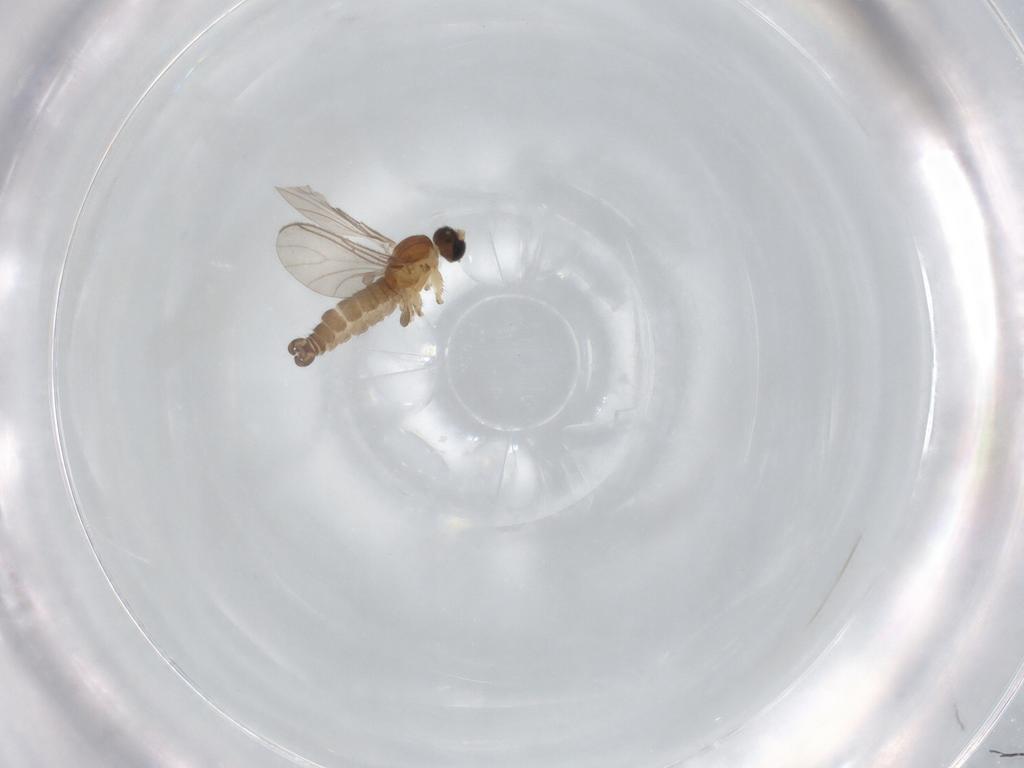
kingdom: Animalia
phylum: Arthropoda
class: Insecta
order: Diptera
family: Sciaridae
